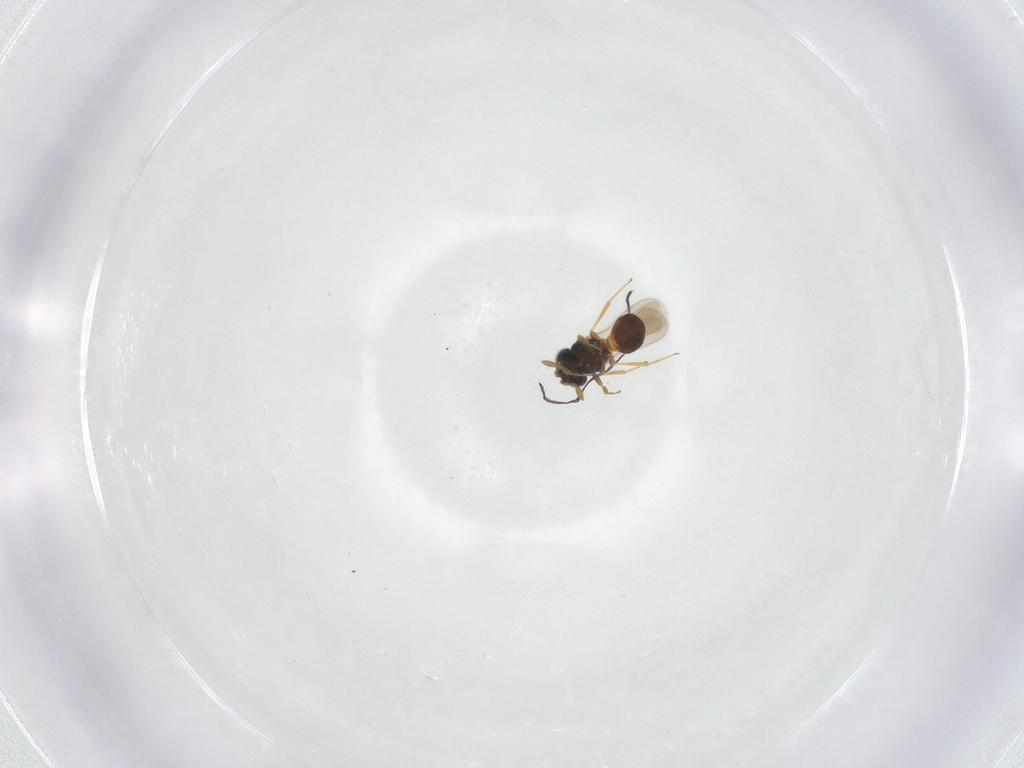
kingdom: Animalia
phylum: Arthropoda
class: Insecta
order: Hymenoptera
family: Scelionidae
